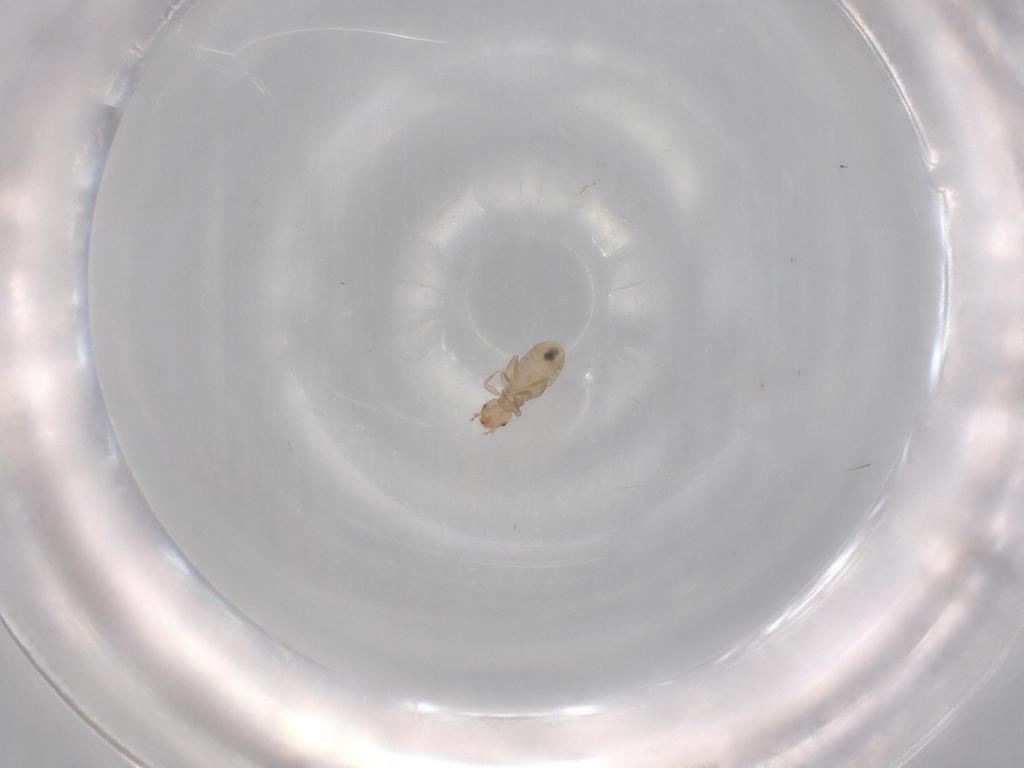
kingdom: Animalia
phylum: Arthropoda
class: Insecta
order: Psocodea
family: Liposcelididae
